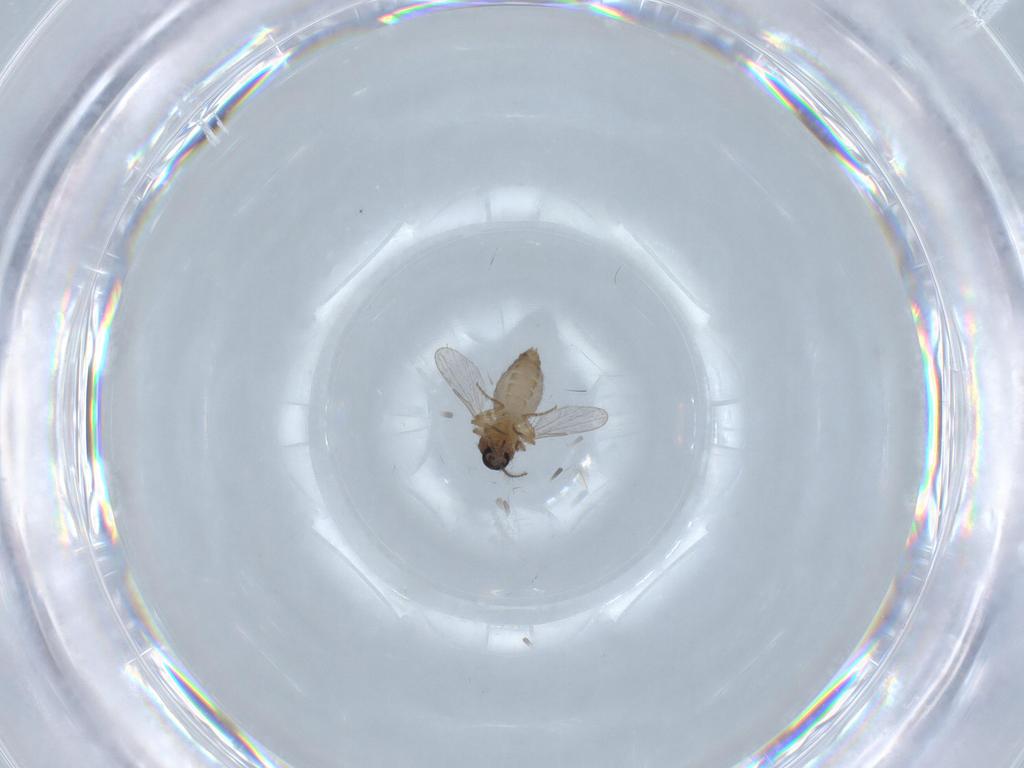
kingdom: Animalia
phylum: Arthropoda
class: Insecta
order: Diptera
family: Ceratopogonidae
